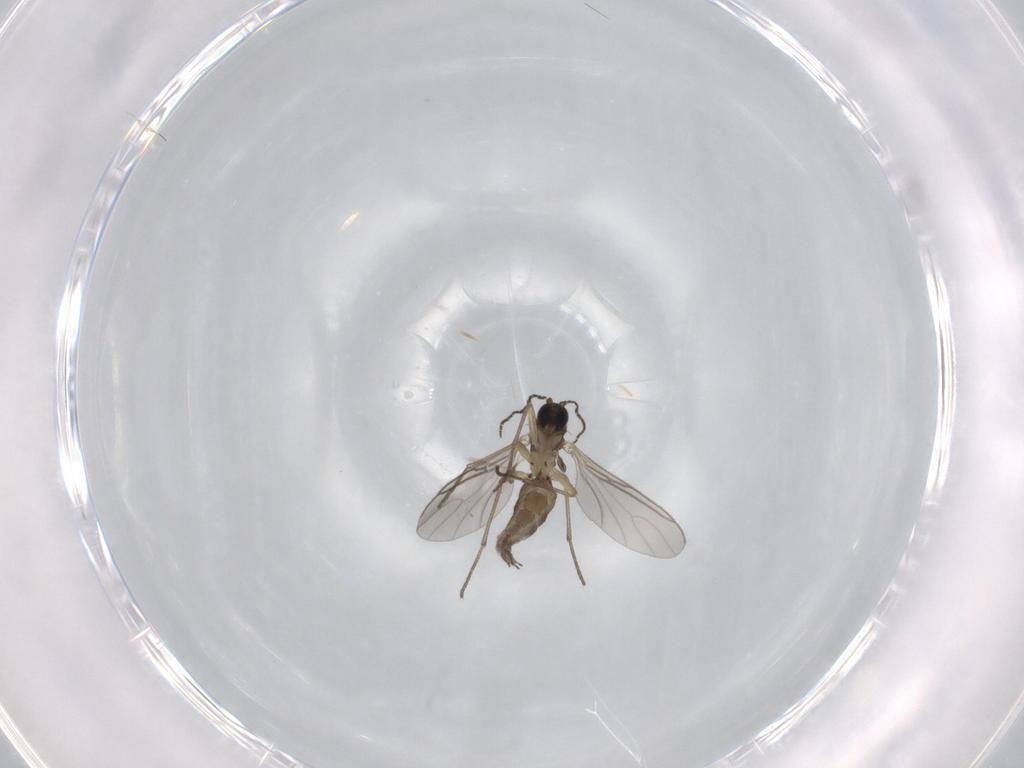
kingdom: Animalia
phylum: Arthropoda
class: Insecta
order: Diptera
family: Sciaridae
